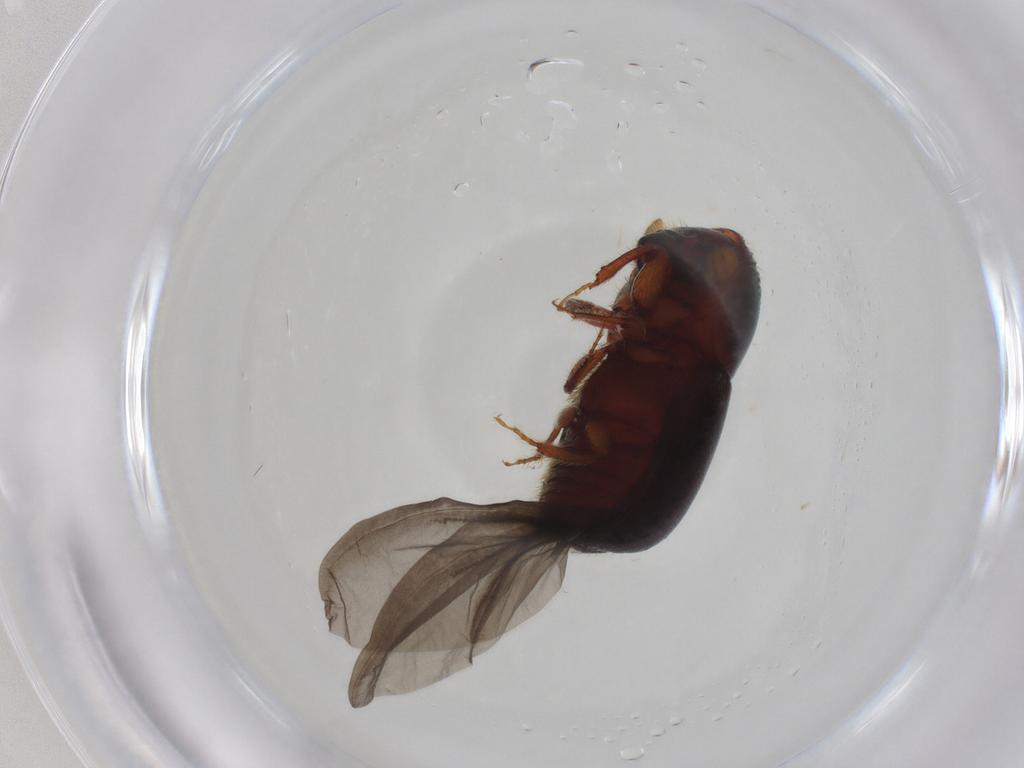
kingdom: Animalia
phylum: Arthropoda
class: Insecta
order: Coleoptera
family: Curculionidae
